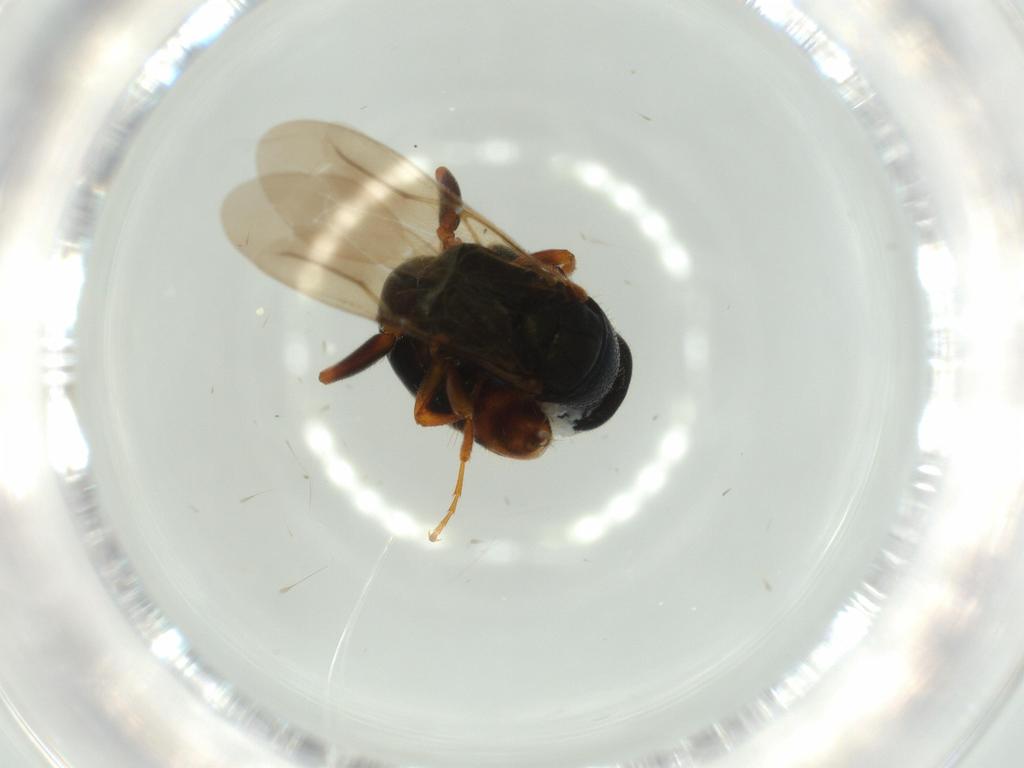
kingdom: Animalia
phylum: Arthropoda
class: Insecta
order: Hymenoptera
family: Bethylidae
